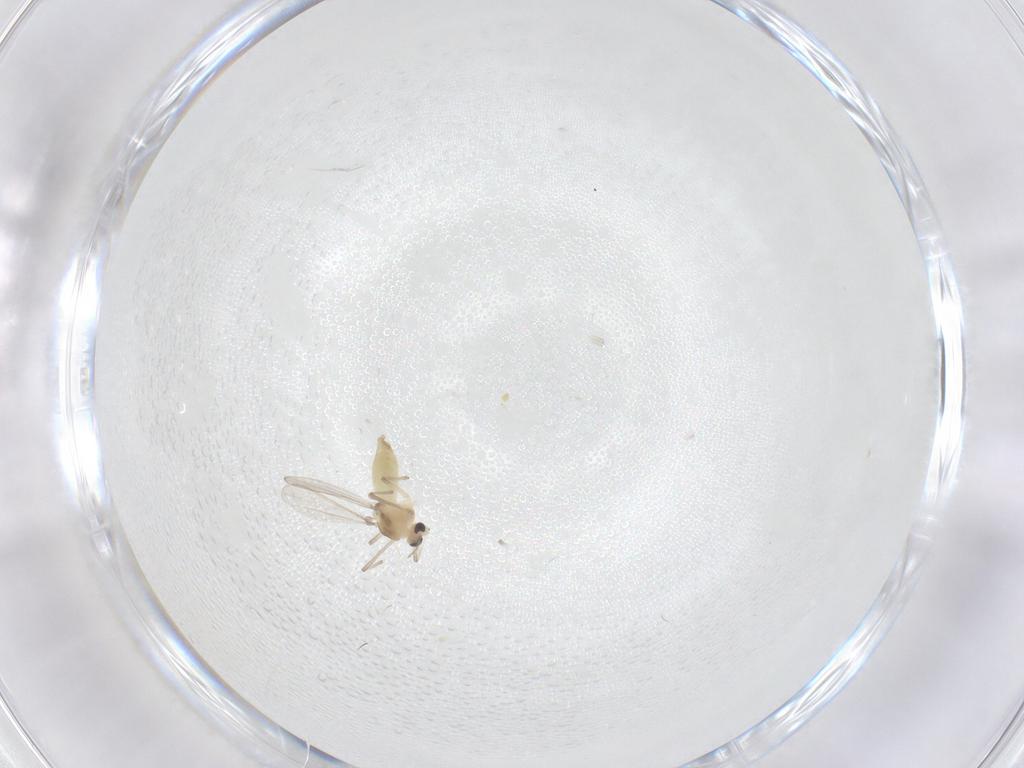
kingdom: Animalia
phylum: Arthropoda
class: Insecta
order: Diptera
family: Chironomidae
